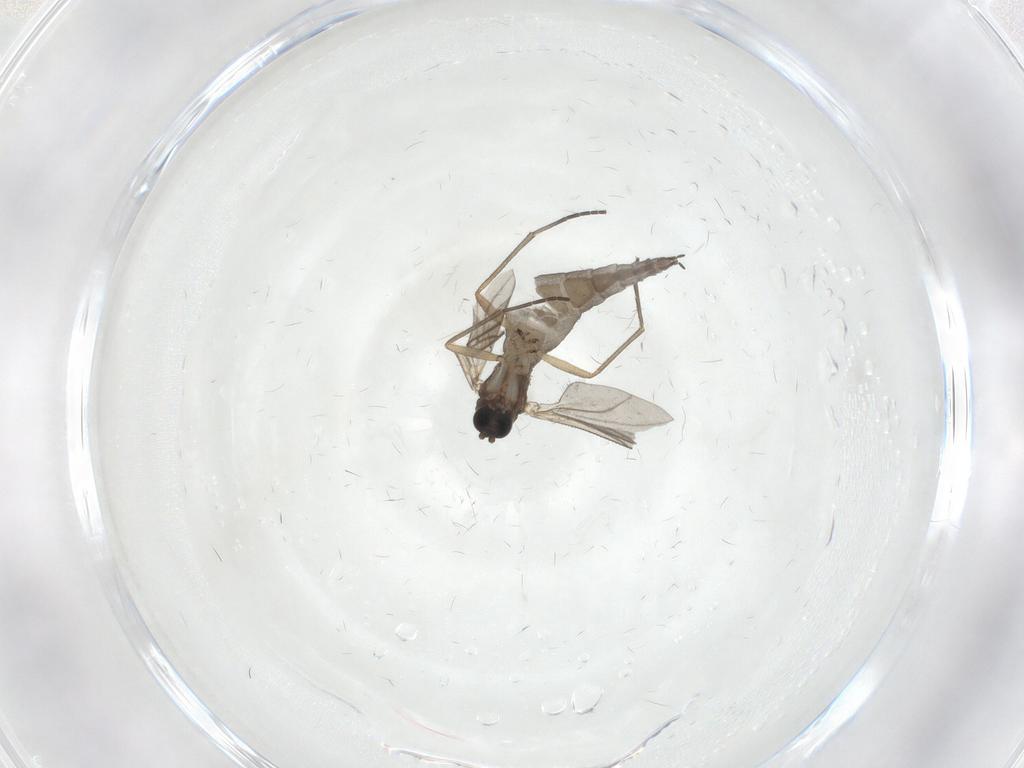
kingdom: Animalia
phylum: Arthropoda
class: Insecta
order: Diptera
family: Sciaridae
